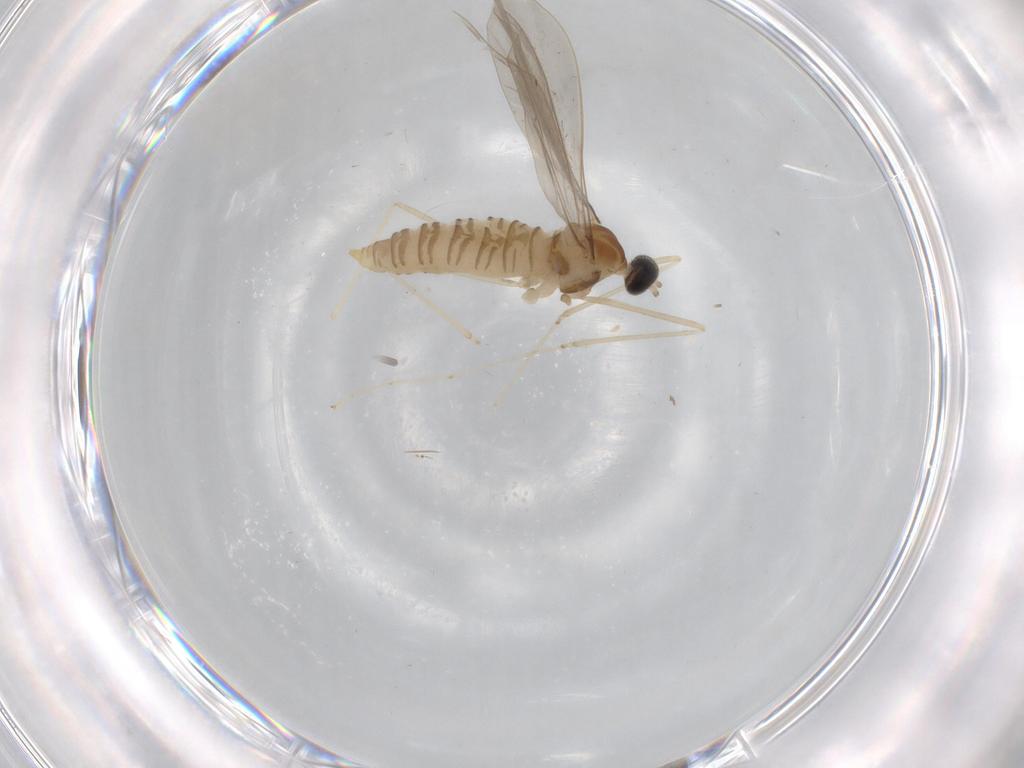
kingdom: Animalia
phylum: Arthropoda
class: Insecta
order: Diptera
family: Cecidomyiidae
